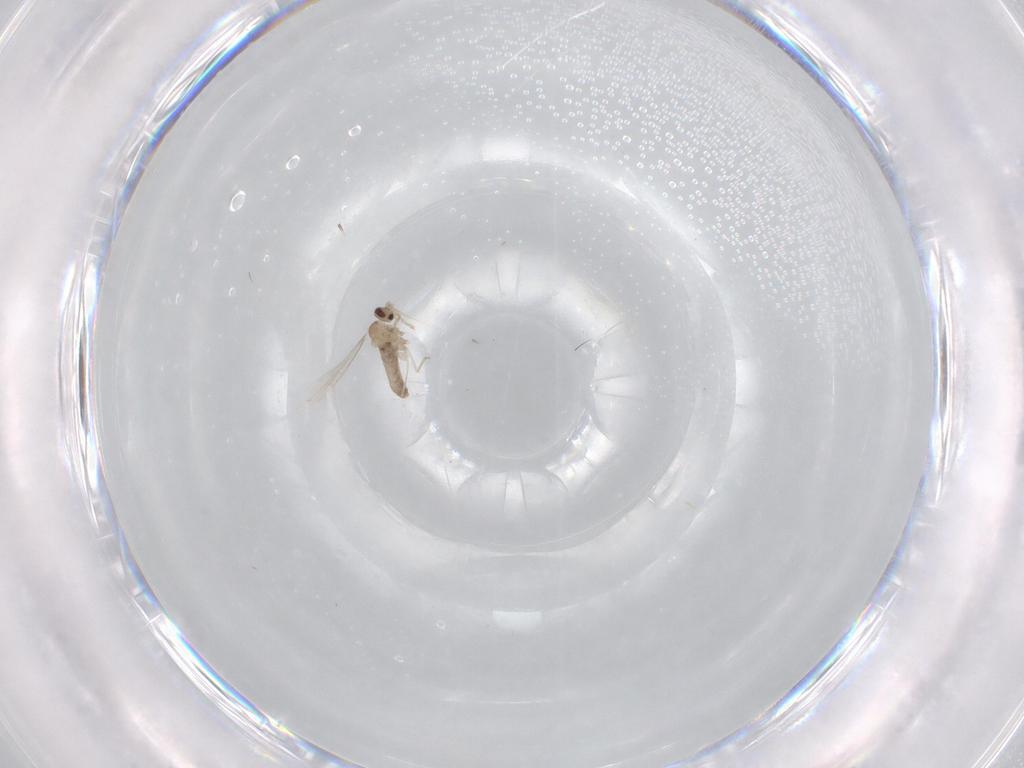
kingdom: Animalia
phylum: Arthropoda
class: Insecta
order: Diptera
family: Cecidomyiidae
